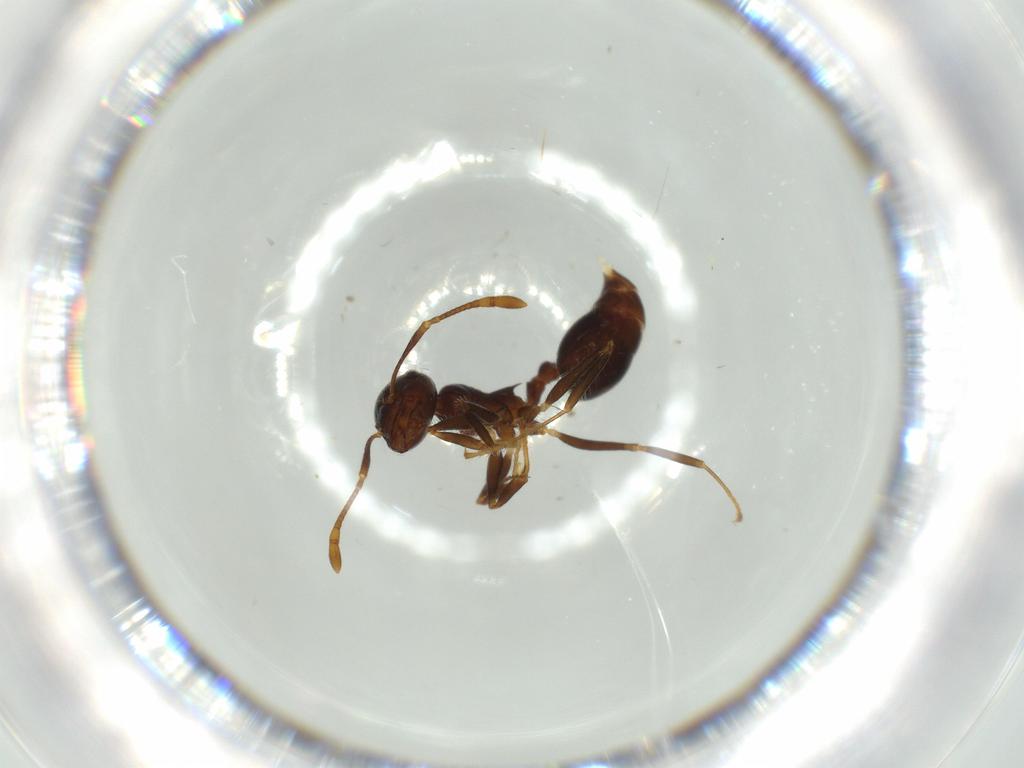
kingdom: Animalia
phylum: Arthropoda
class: Insecta
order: Hymenoptera
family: Formicidae
